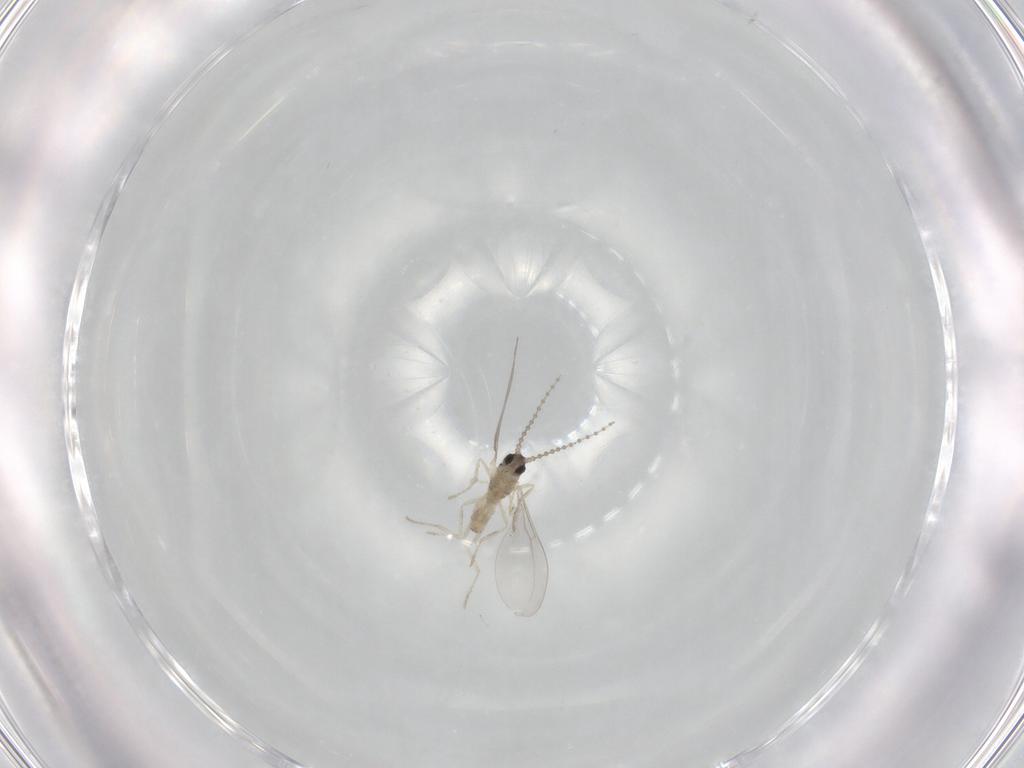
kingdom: Animalia
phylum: Arthropoda
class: Insecta
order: Diptera
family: Cecidomyiidae
